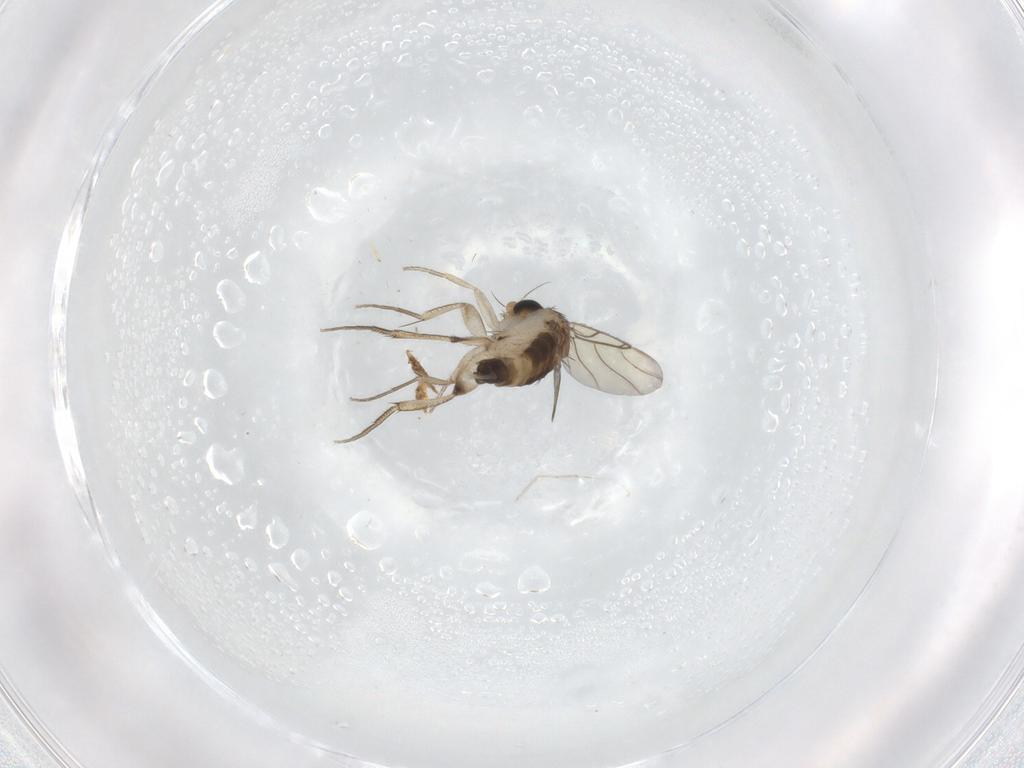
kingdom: Animalia
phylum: Arthropoda
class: Insecta
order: Diptera
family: Phoridae
